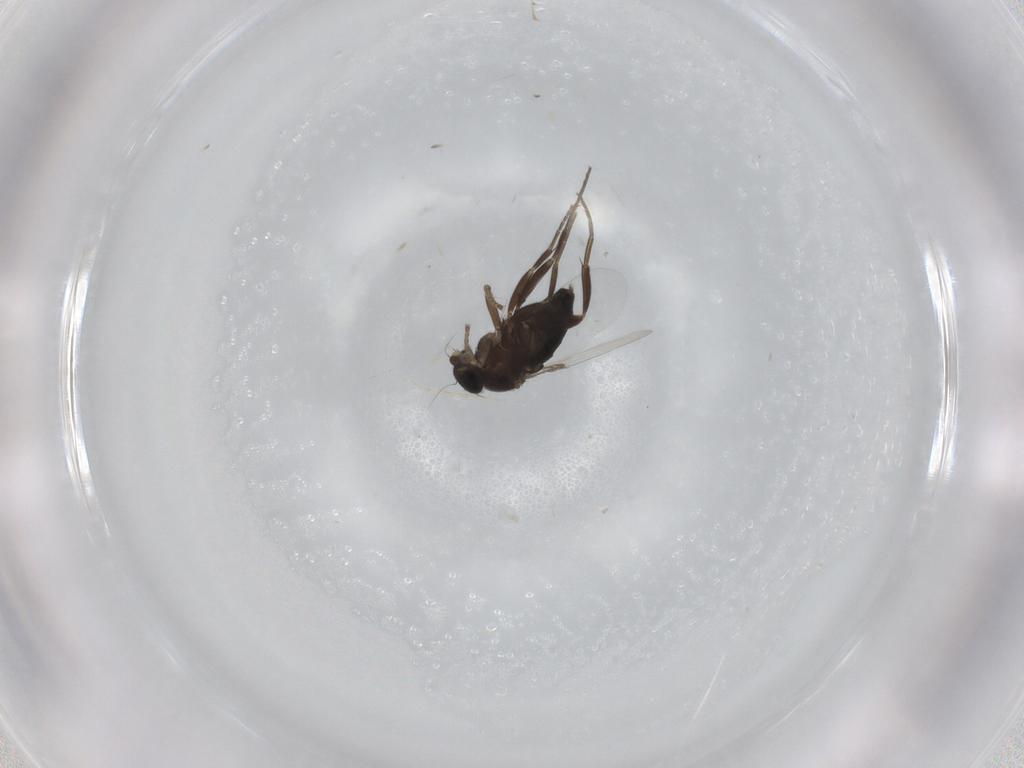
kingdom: Animalia
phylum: Arthropoda
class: Insecta
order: Diptera
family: Phoridae
